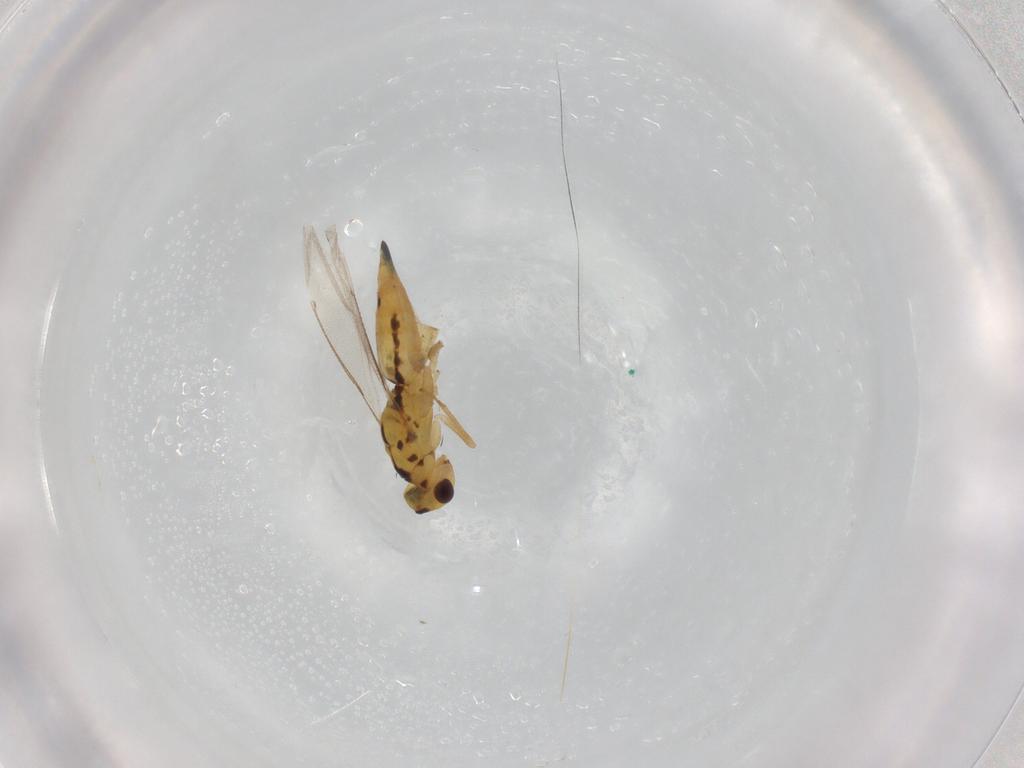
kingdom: Animalia
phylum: Arthropoda
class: Insecta
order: Hymenoptera
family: Eulophidae
